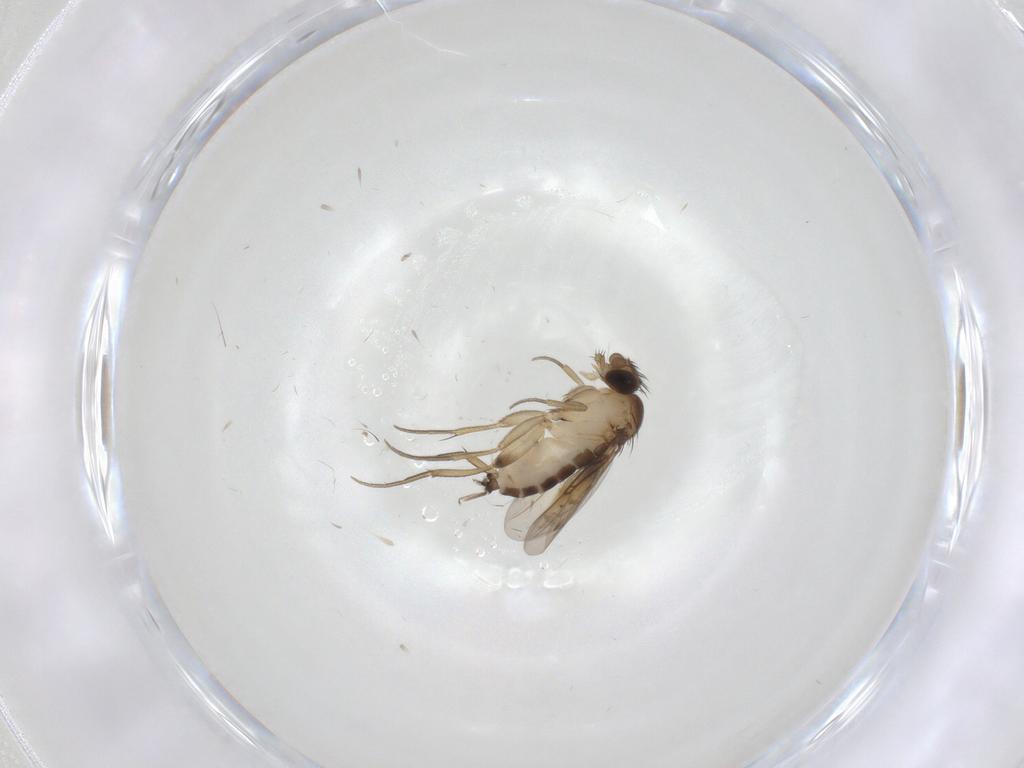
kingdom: Animalia
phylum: Arthropoda
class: Insecta
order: Diptera
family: Phoridae
